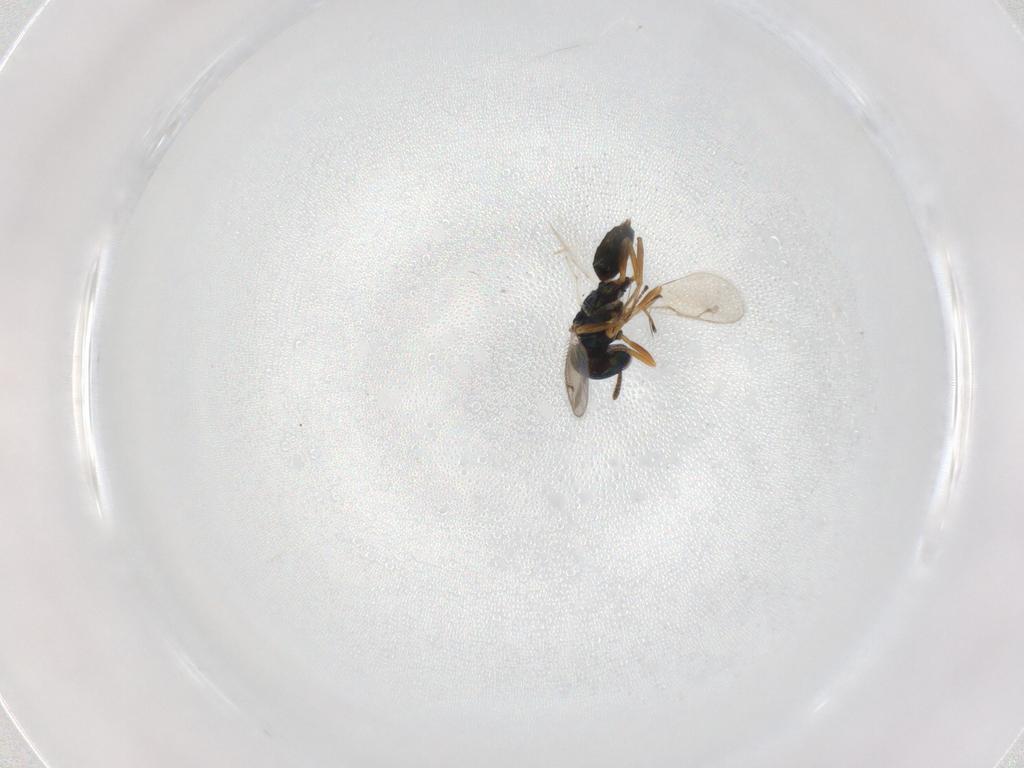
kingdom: Animalia
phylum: Arthropoda
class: Insecta
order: Hymenoptera
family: Pteromalidae
